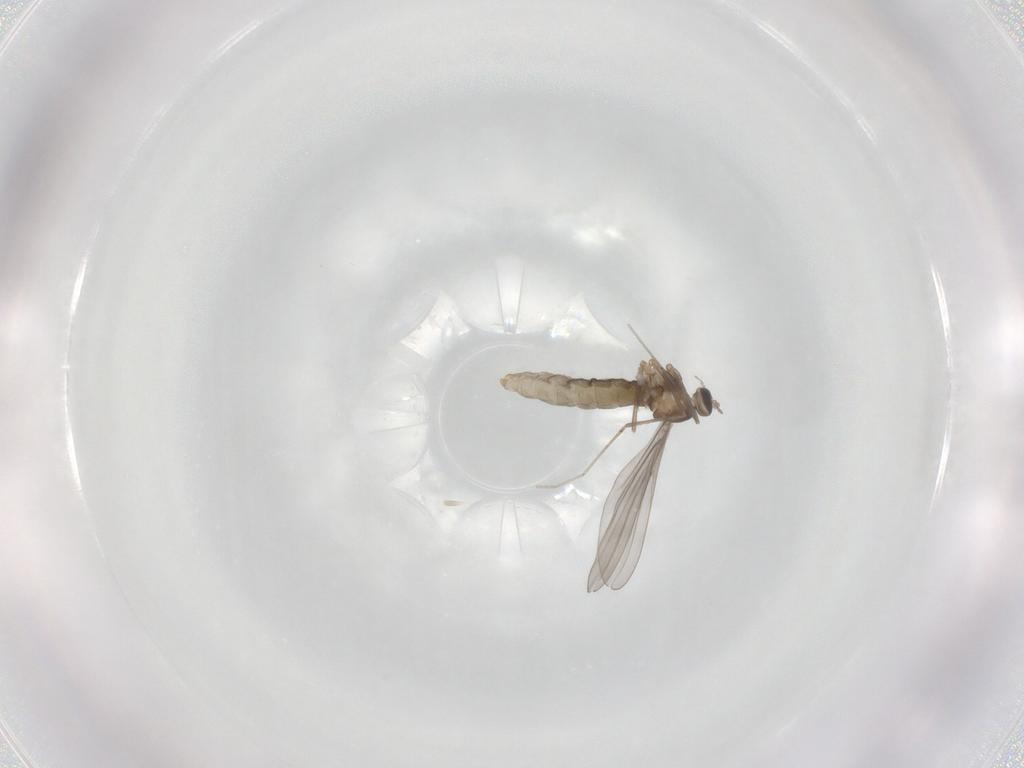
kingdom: Animalia
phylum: Arthropoda
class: Insecta
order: Diptera
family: Cecidomyiidae
